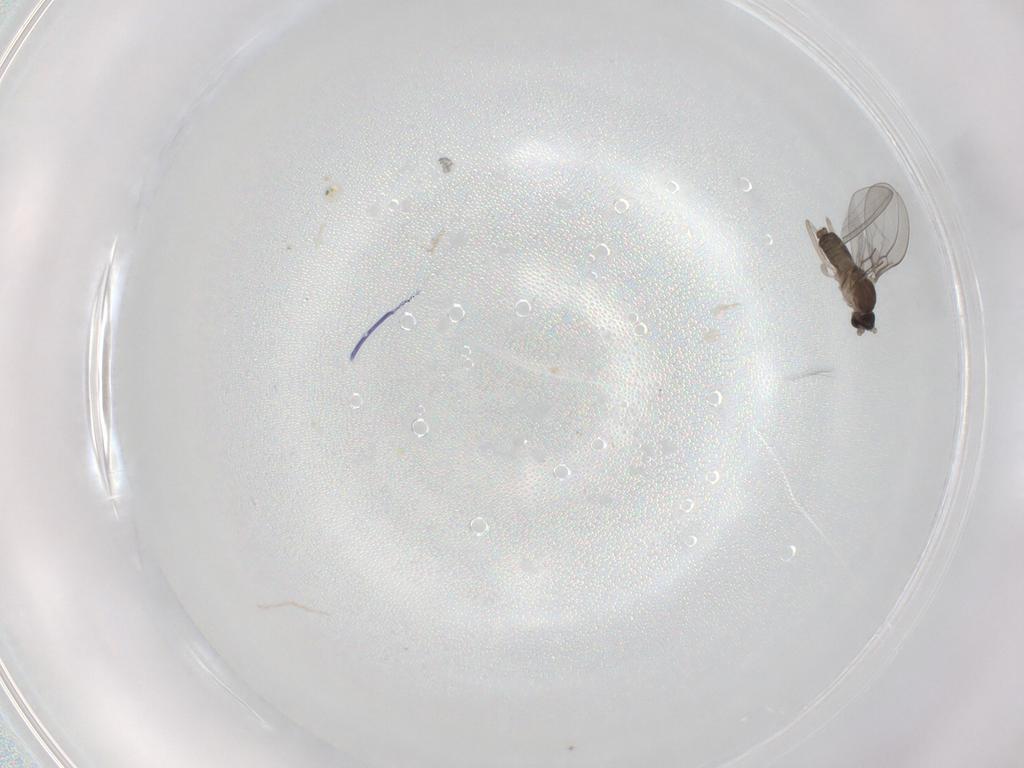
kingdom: Animalia
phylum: Arthropoda
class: Insecta
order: Diptera
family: Cecidomyiidae
